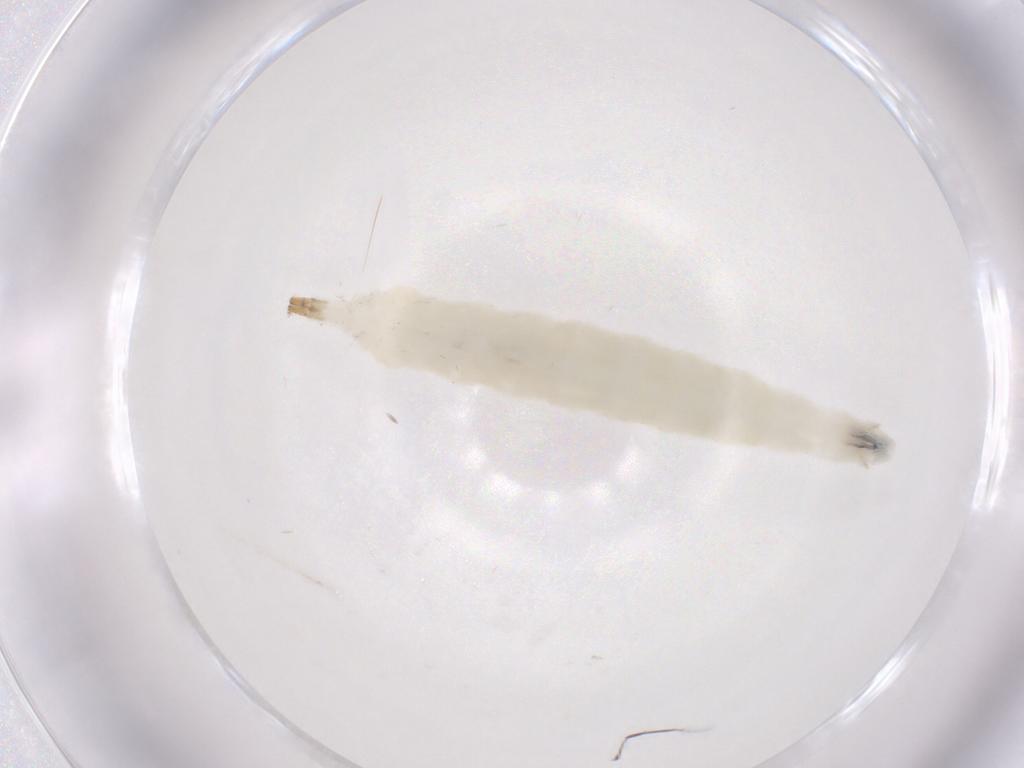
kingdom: Animalia
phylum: Arthropoda
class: Insecta
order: Diptera
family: Drosophilidae
